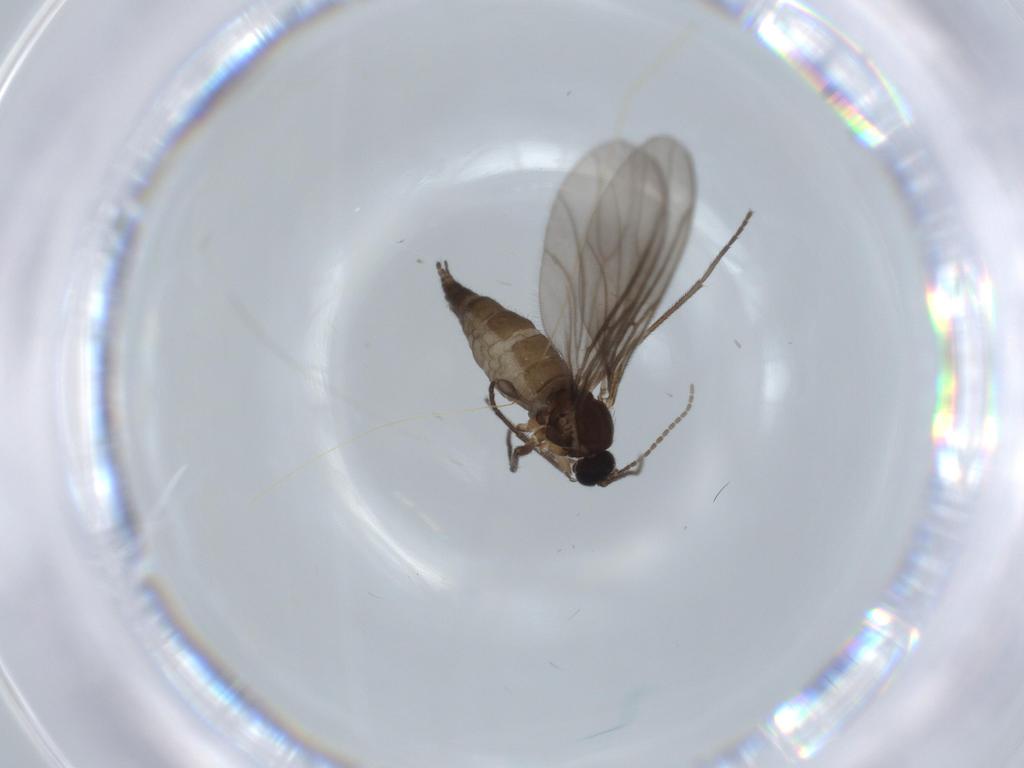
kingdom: Animalia
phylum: Arthropoda
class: Insecta
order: Diptera
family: Sciaridae
